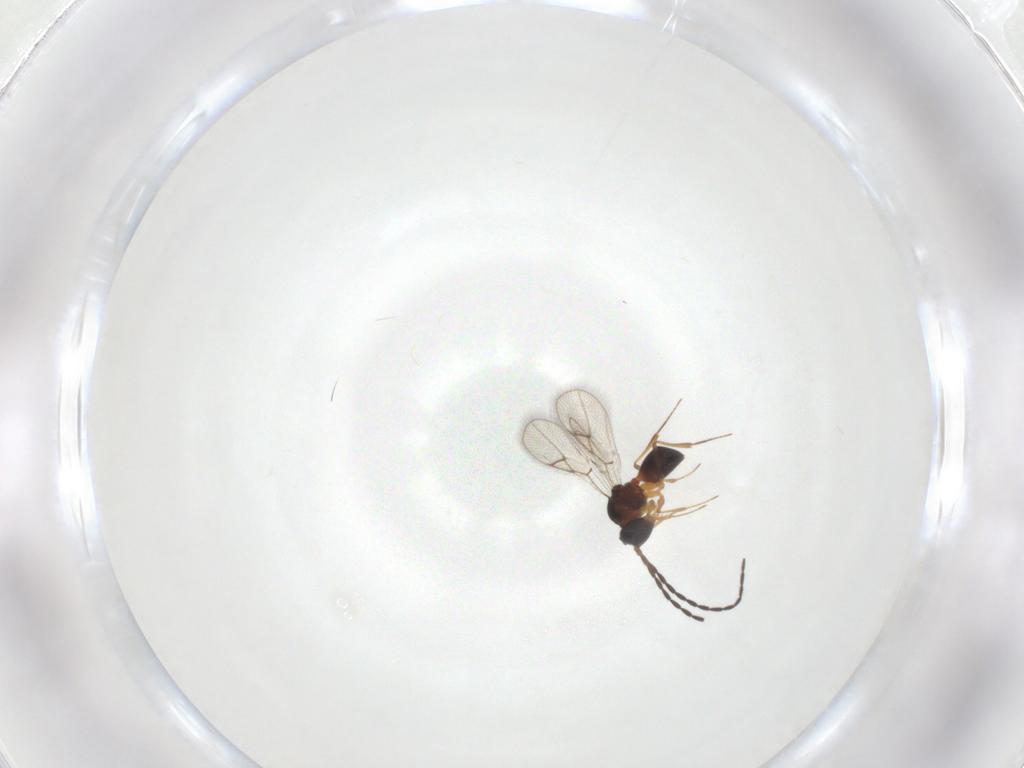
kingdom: Animalia
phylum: Arthropoda
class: Insecta
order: Hymenoptera
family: Figitidae
